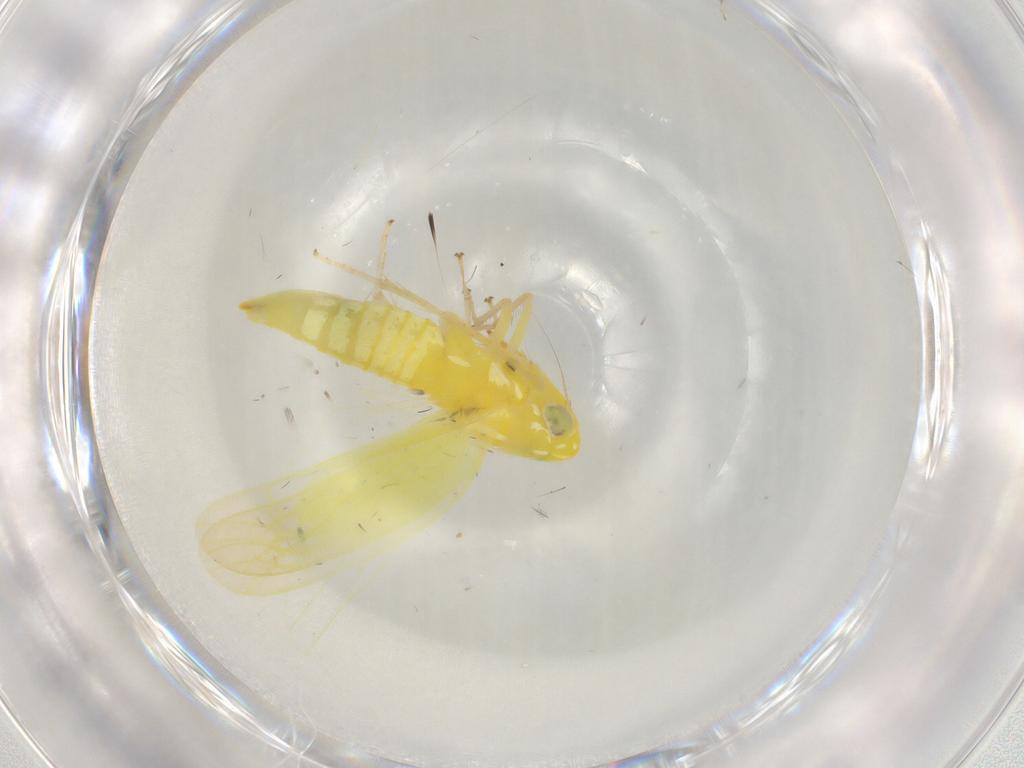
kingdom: Animalia
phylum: Arthropoda
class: Insecta
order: Hemiptera
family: Cicadellidae
